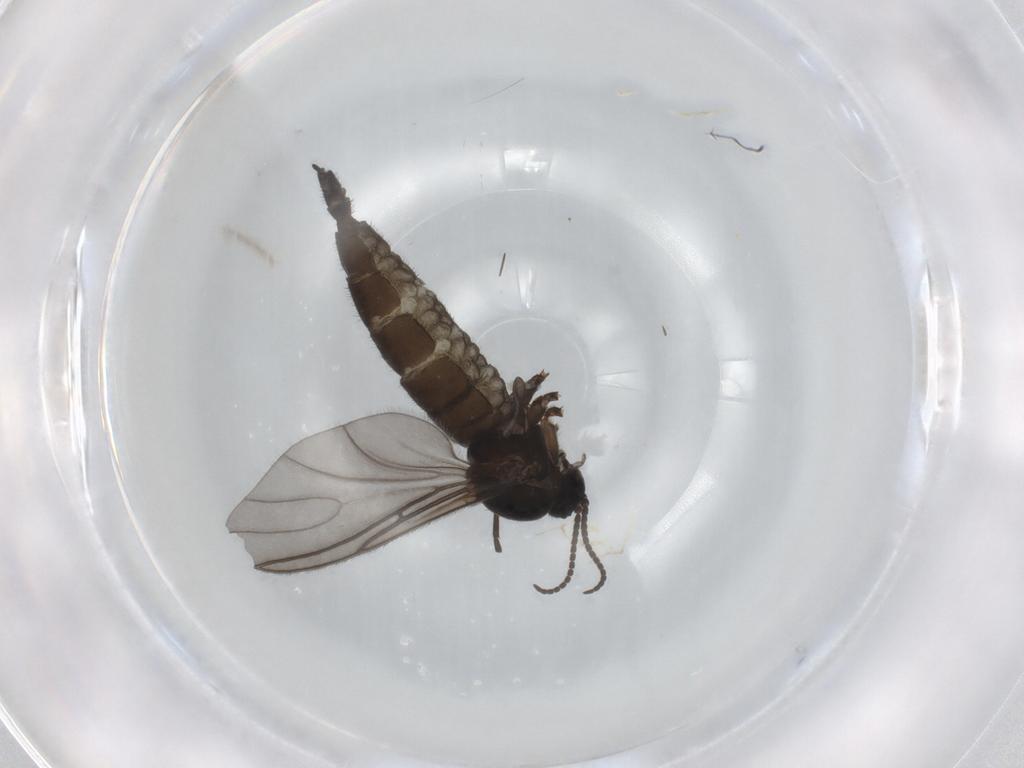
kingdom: Animalia
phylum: Arthropoda
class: Insecta
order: Diptera
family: Sciaridae
